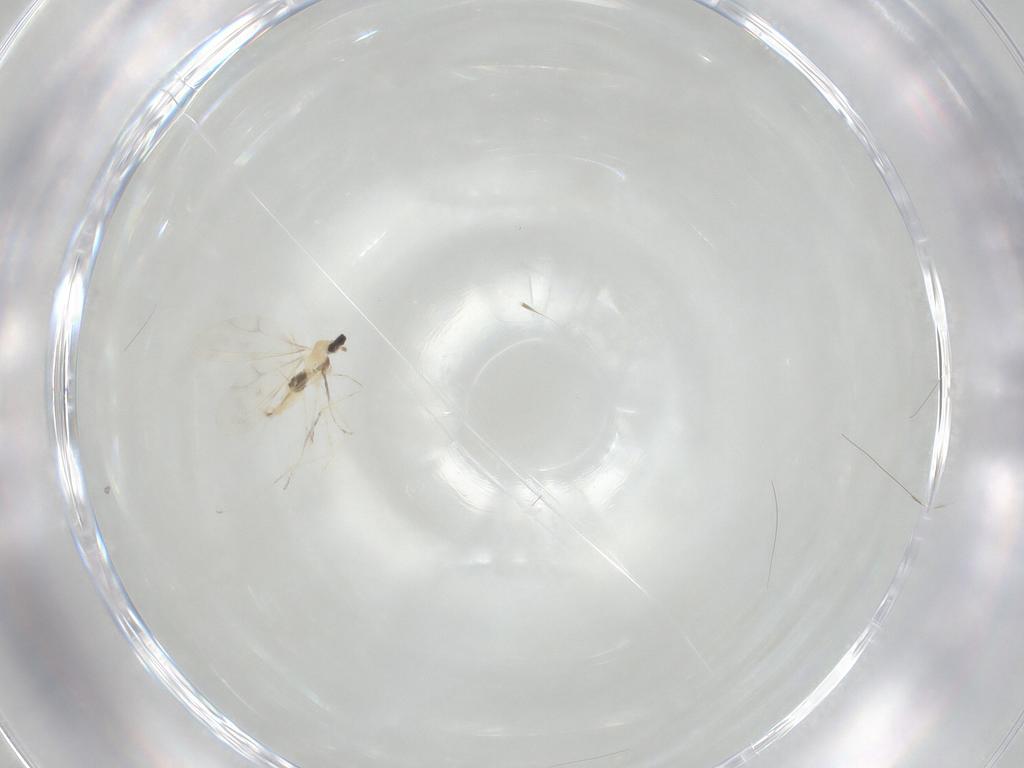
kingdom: Animalia
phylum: Arthropoda
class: Insecta
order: Diptera
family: Cecidomyiidae
